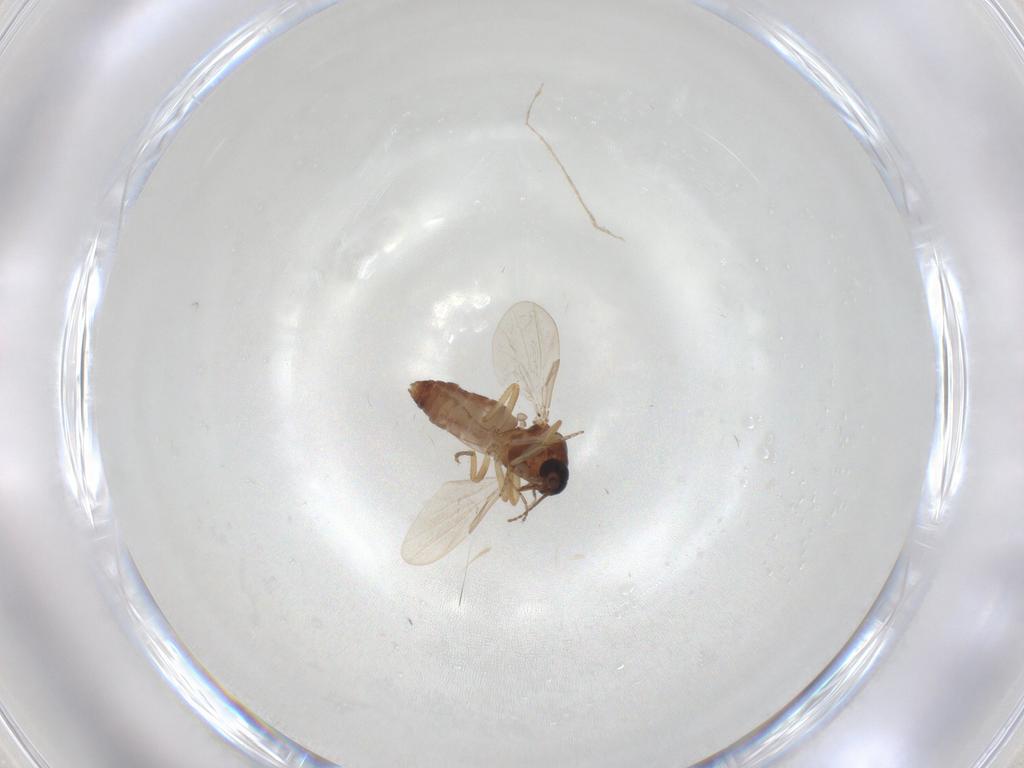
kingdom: Animalia
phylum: Arthropoda
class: Insecta
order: Diptera
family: Ceratopogonidae
